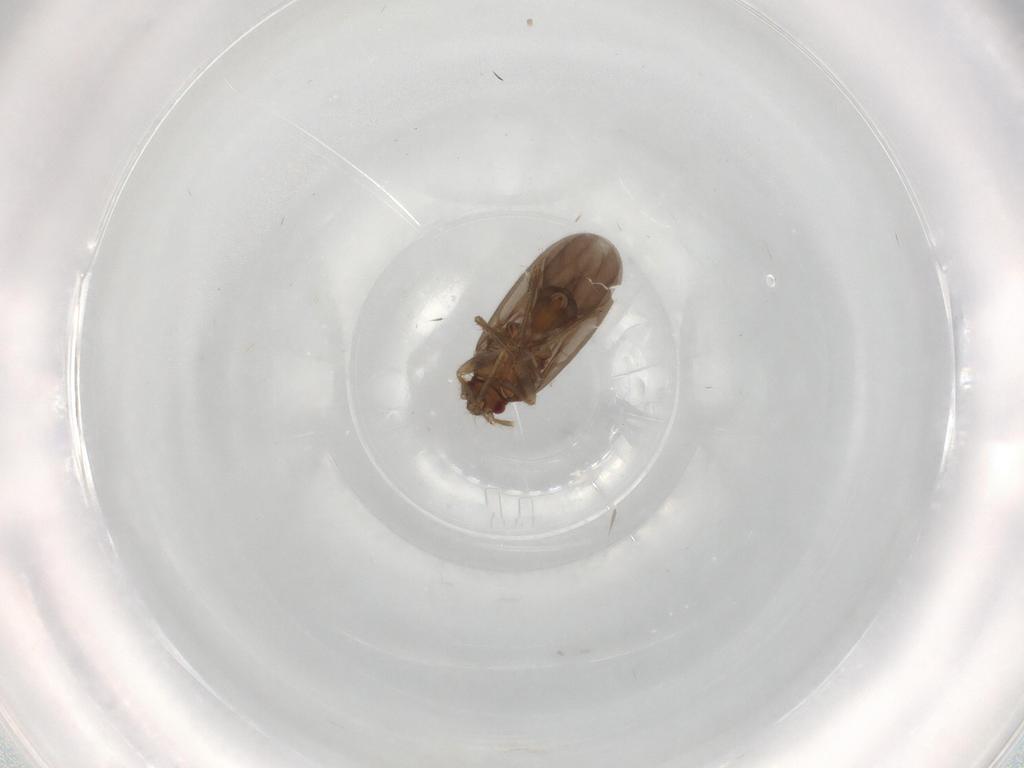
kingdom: Animalia
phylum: Arthropoda
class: Insecta
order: Hemiptera
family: Ceratocombidae
